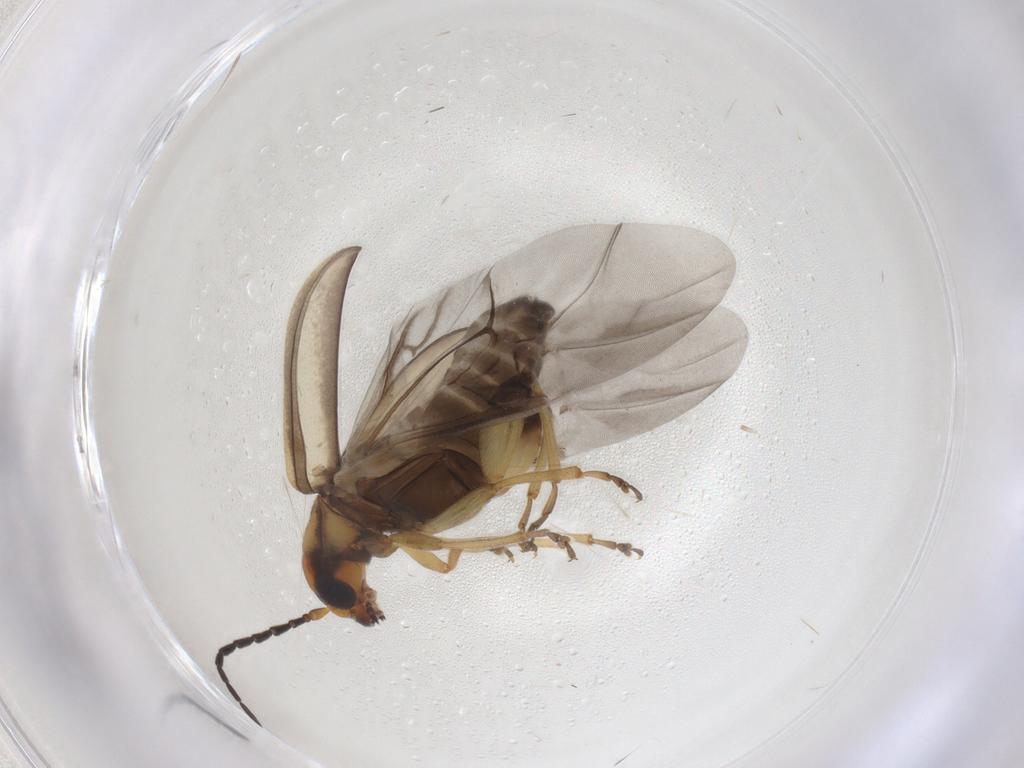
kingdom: Animalia
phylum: Arthropoda
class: Insecta
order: Coleoptera
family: Chrysomelidae
